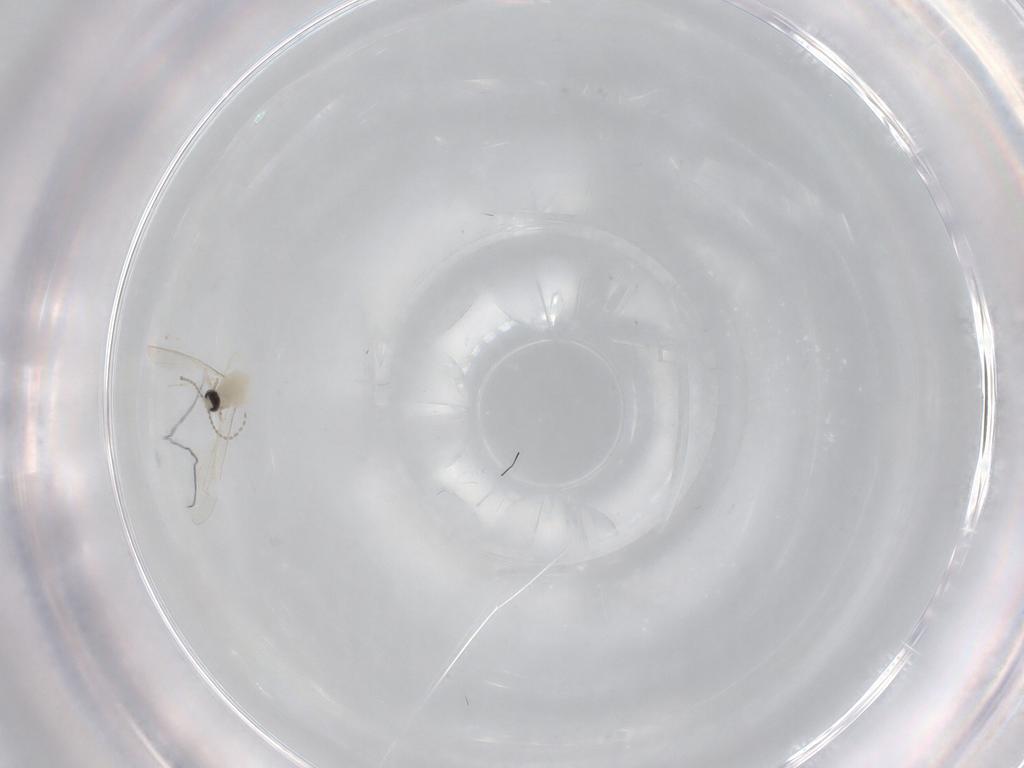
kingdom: Animalia
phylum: Arthropoda
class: Insecta
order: Diptera
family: Cecidomyiidae
